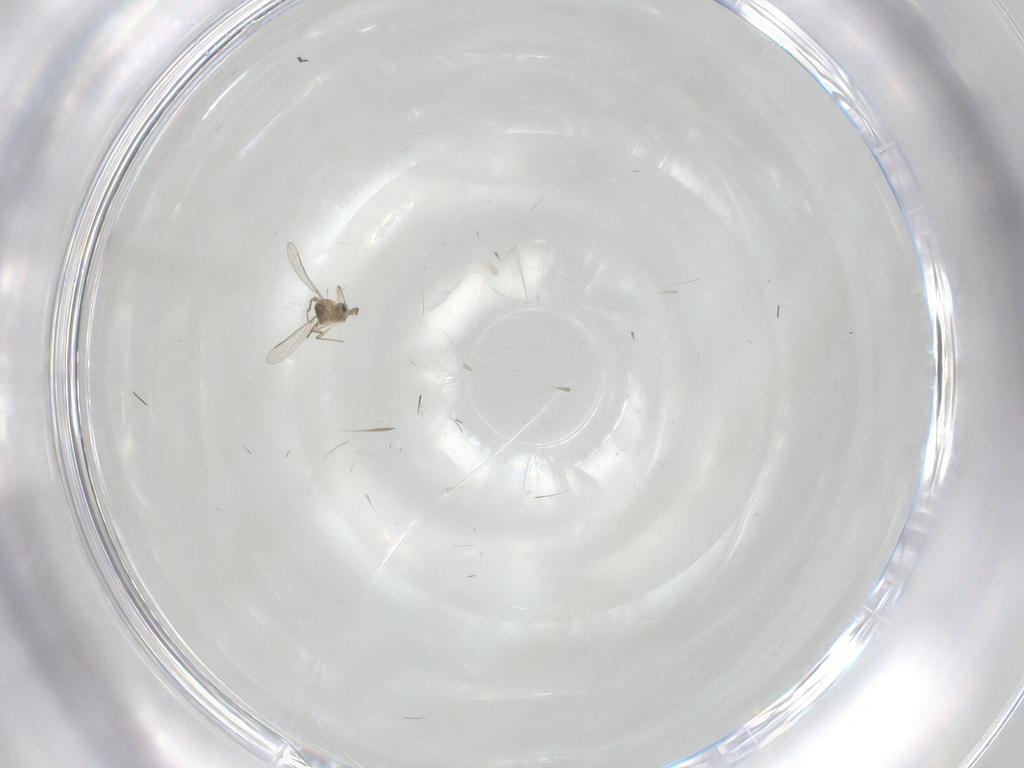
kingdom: Animalia
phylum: Arthropoda
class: Insecta
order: Diptera
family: Chironomidae
